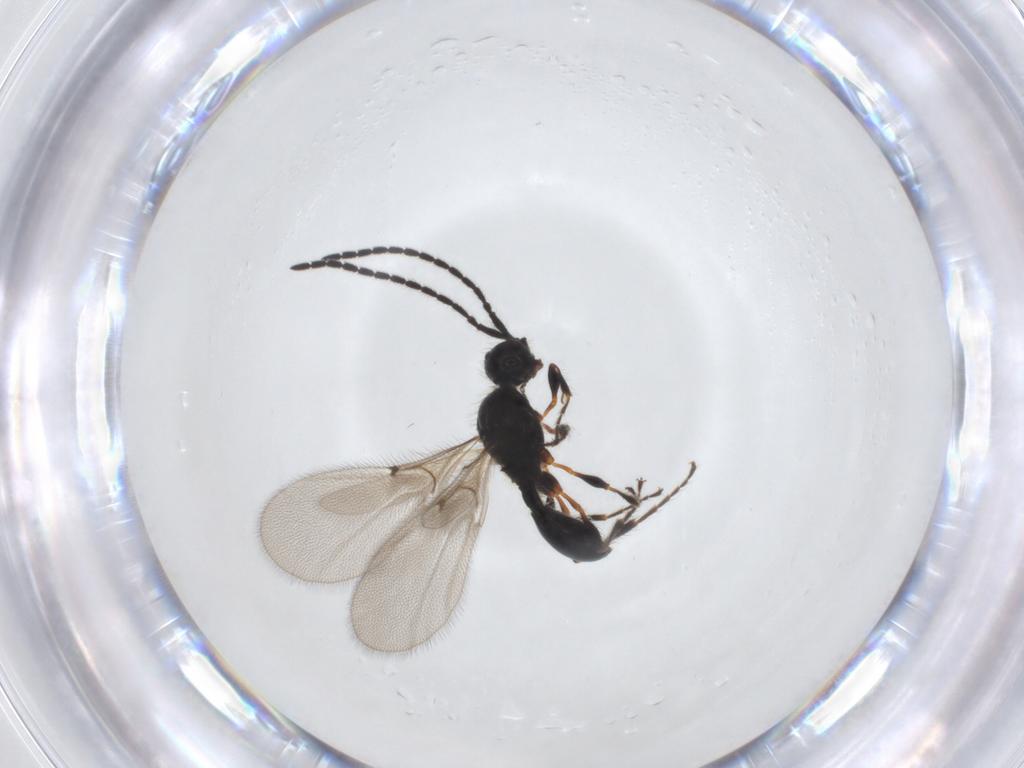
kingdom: Animalia
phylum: Arthropoda
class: Insecta
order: Hymenoptera
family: Diapriidae
